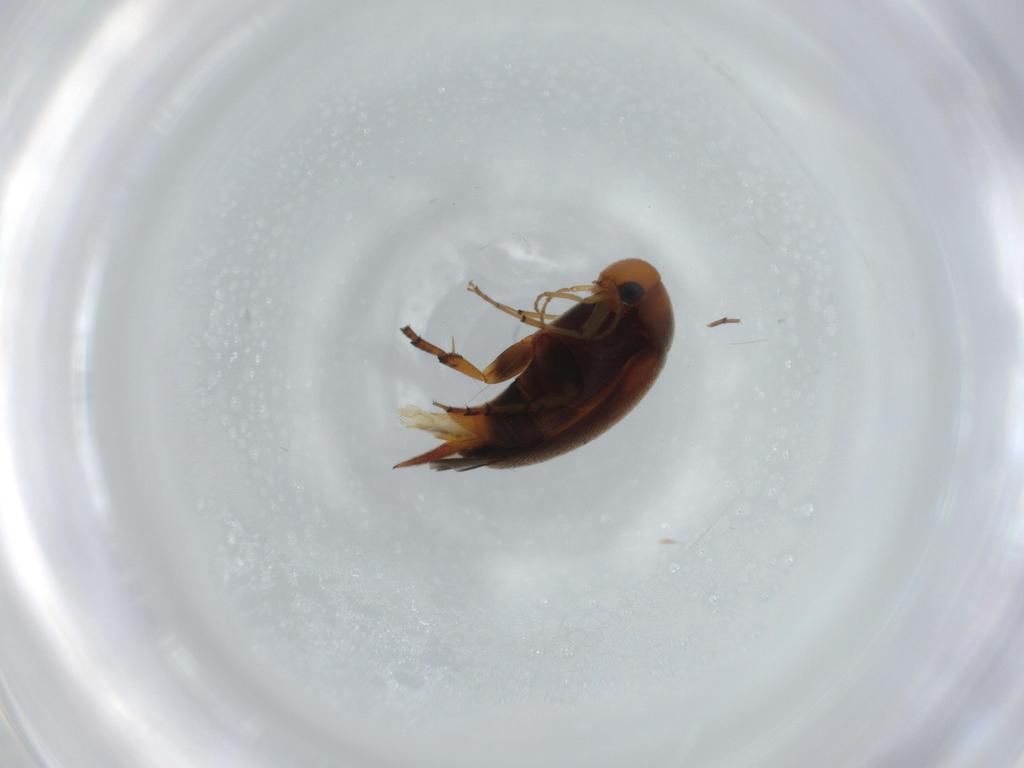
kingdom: Animalia
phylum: Arthropoda
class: Insecta
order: Coleoptera
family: Mordellidae
